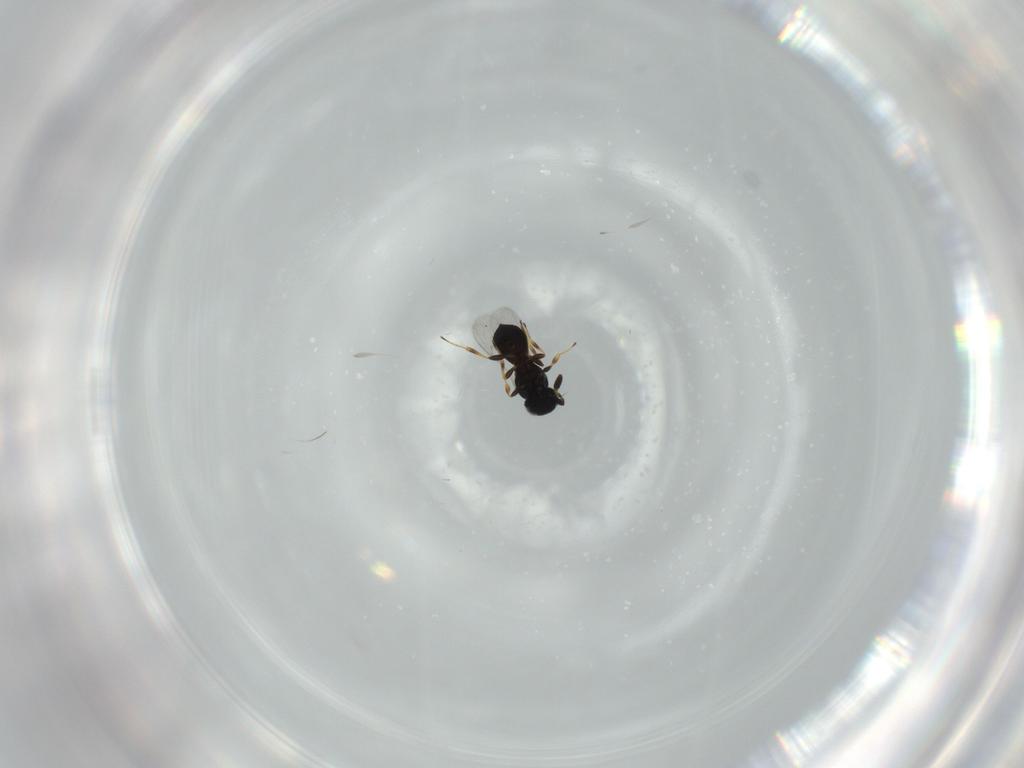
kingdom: Animalia
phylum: Arthropoda
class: Insecta
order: Hymenoptera
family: Scelionidae
